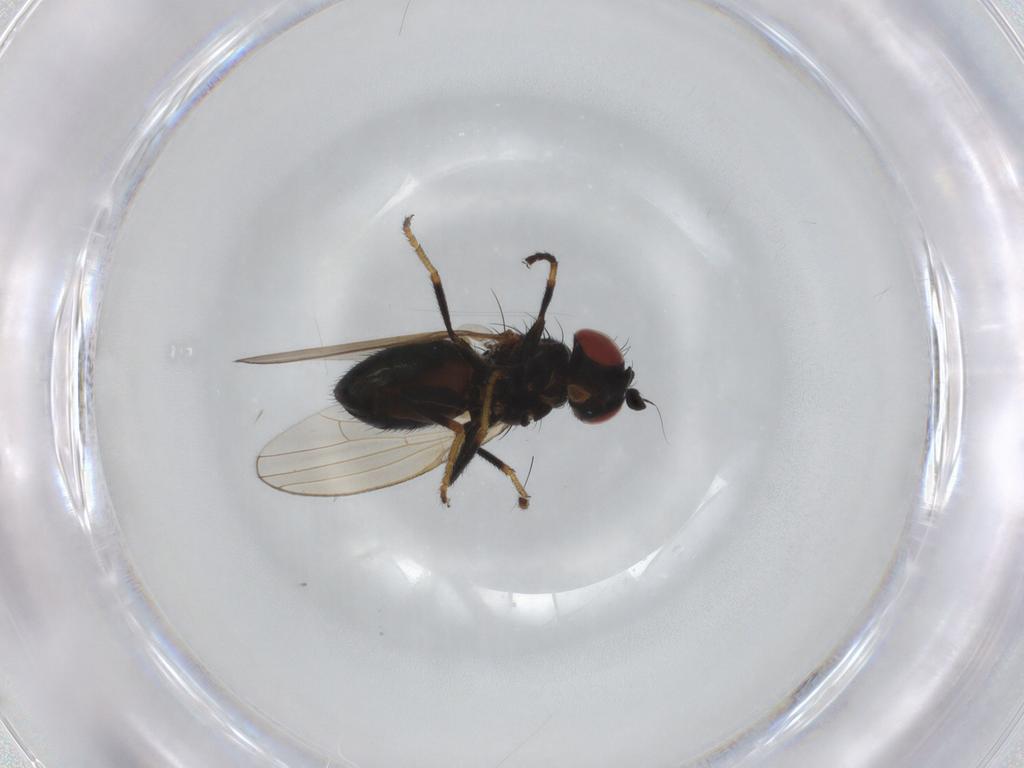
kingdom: Animalia
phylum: Arthropoda
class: Insecta
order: Diptera
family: Chamaemyiidae
